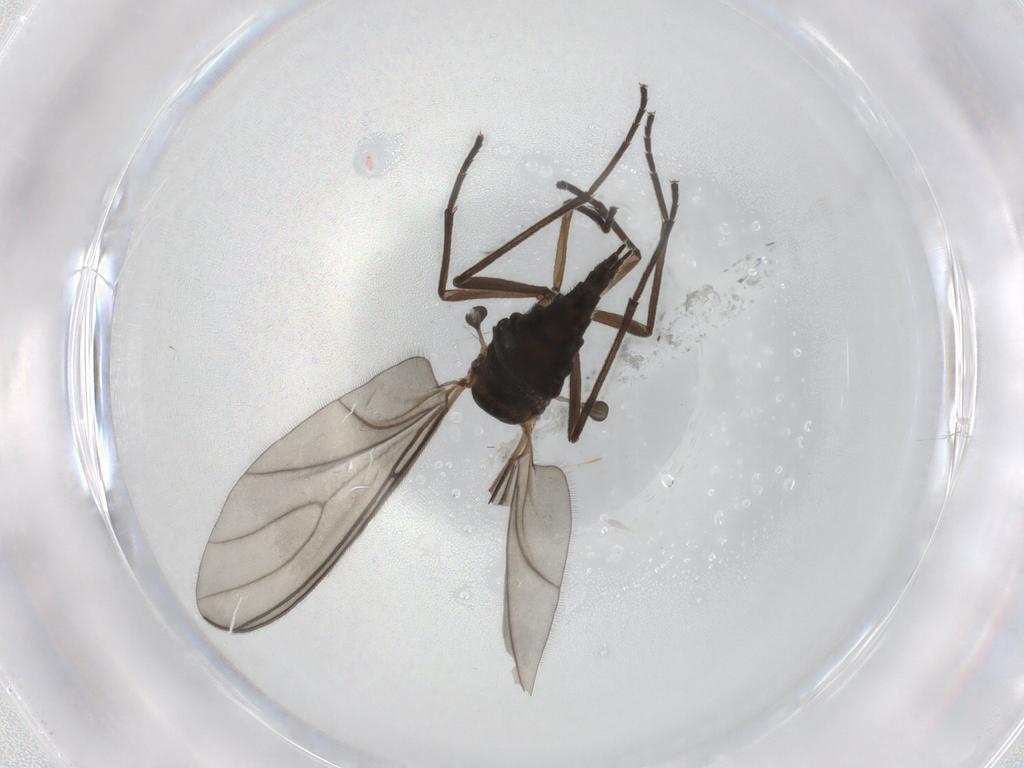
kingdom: Animalia
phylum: Arthropoda
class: Insecta
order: Diptera
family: Sciaridae
